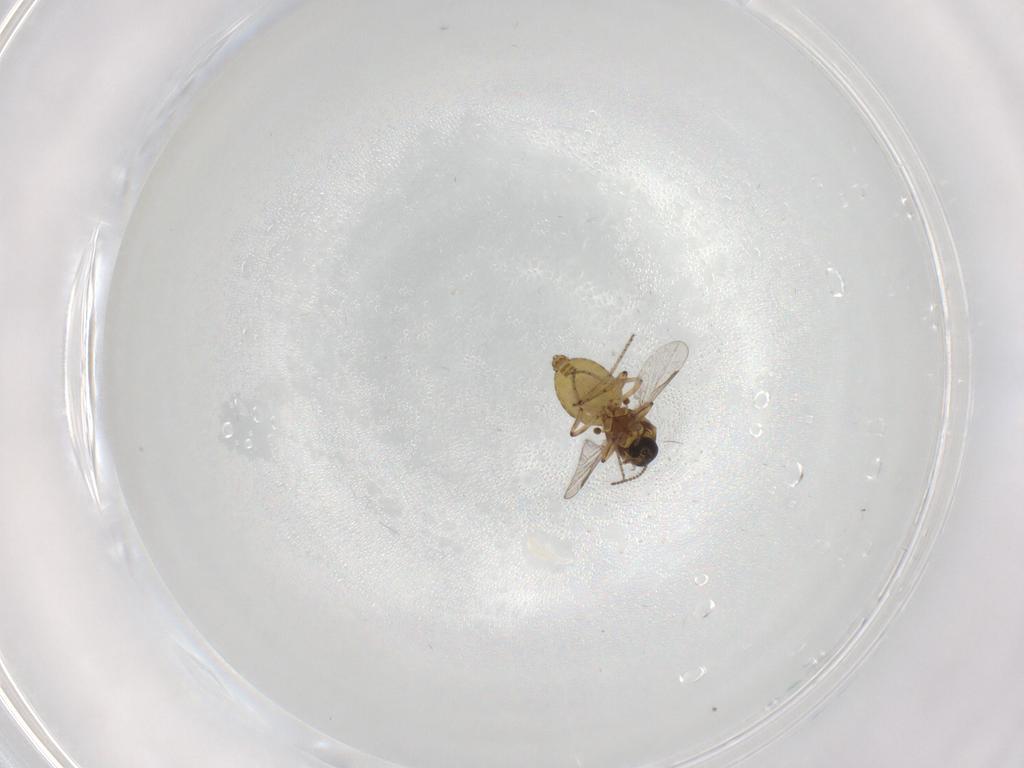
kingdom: Animalia
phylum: Arthropoda
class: Insecta
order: Diptera
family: Ceratopogonidae
